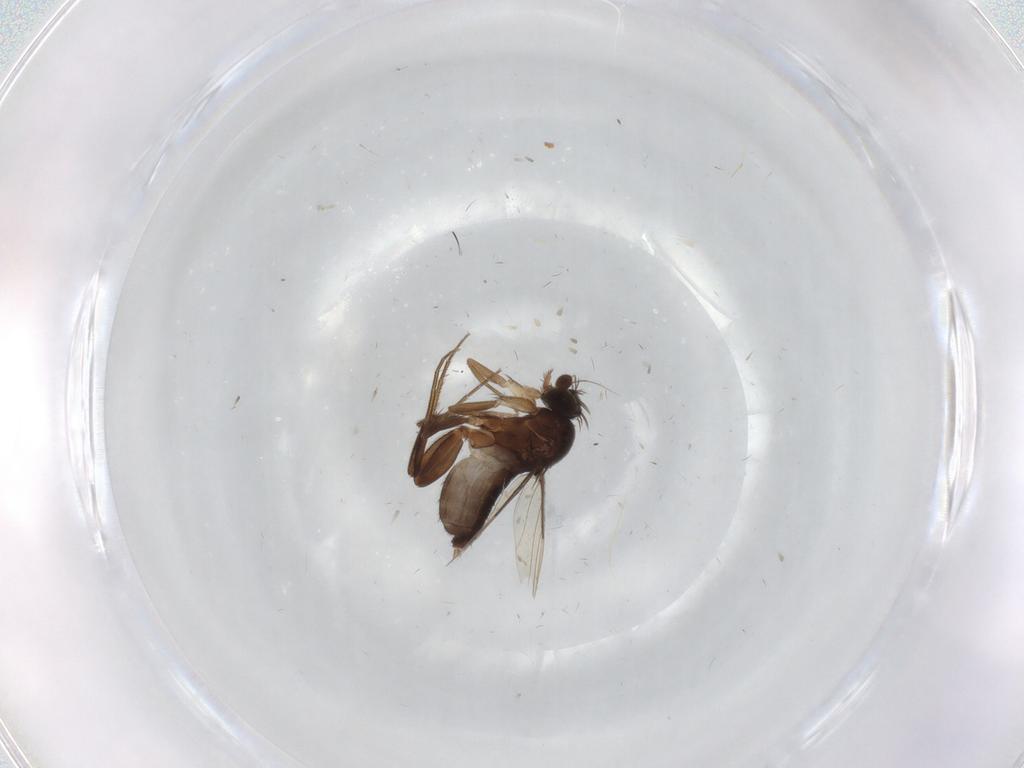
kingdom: Animalia
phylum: Arthropoda
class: Insecta
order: Diptera
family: Phoridae
